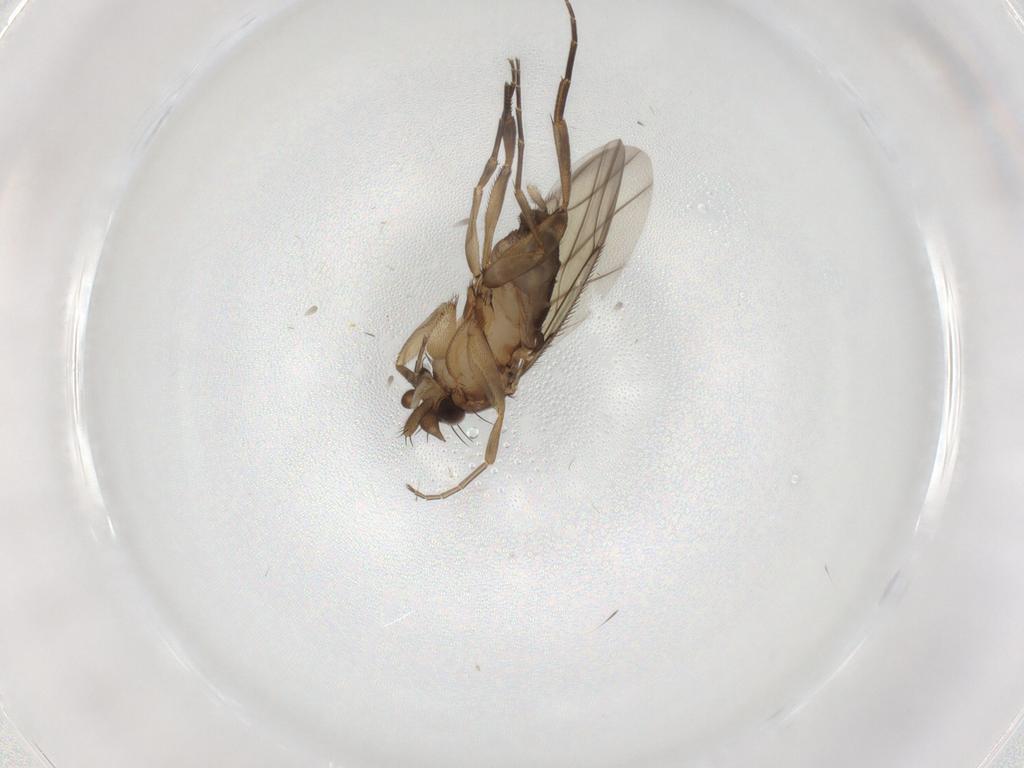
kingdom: Animalia
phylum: Arthropoda
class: Insecta
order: Diptera
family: Phoridae
